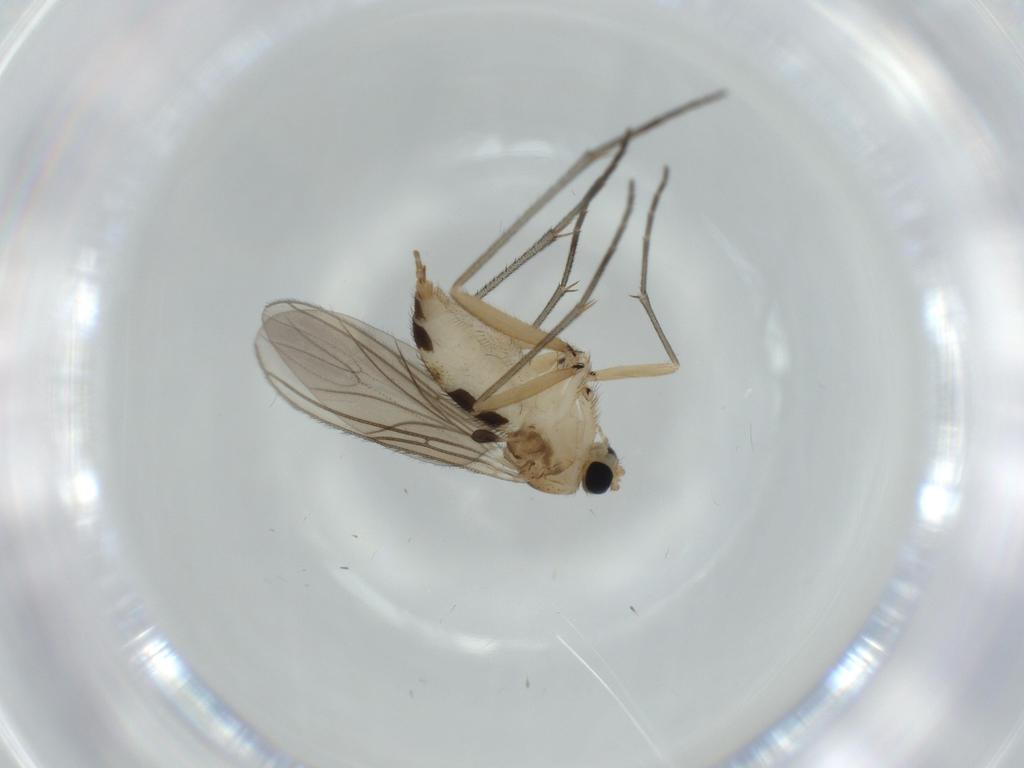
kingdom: Animalia
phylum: Arthropoda
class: Insecta
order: Diptera
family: Sciaridae
